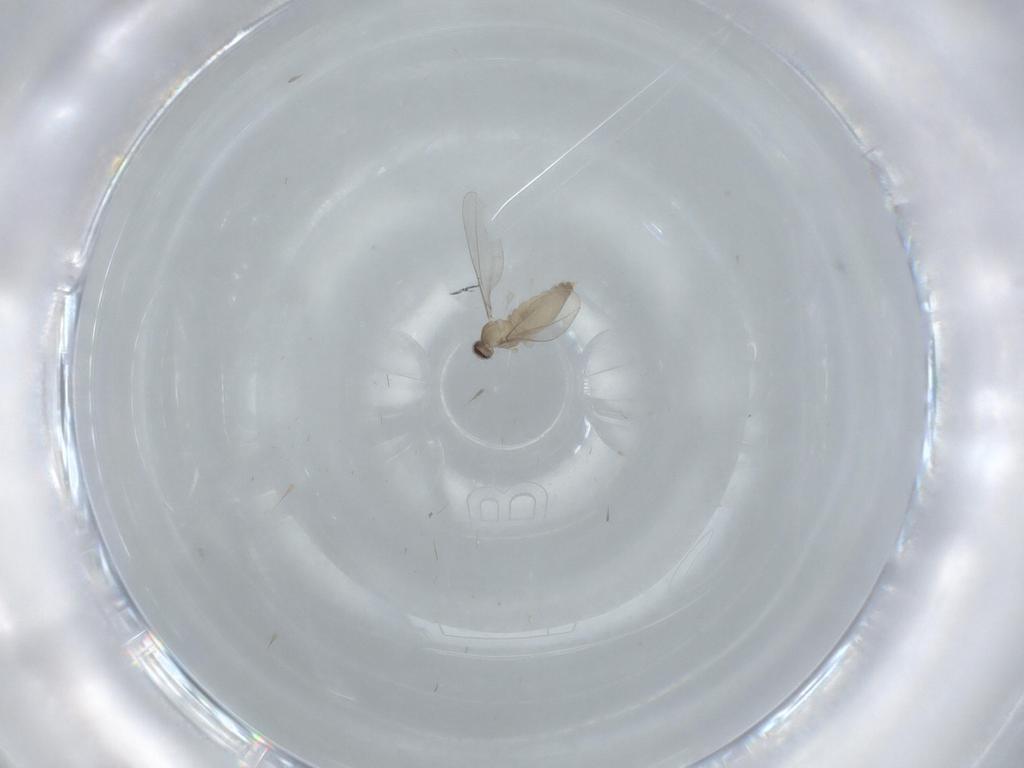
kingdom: Animalia
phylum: Arthropoda
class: Insecta
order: Diptera
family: Cecidomyiidae
